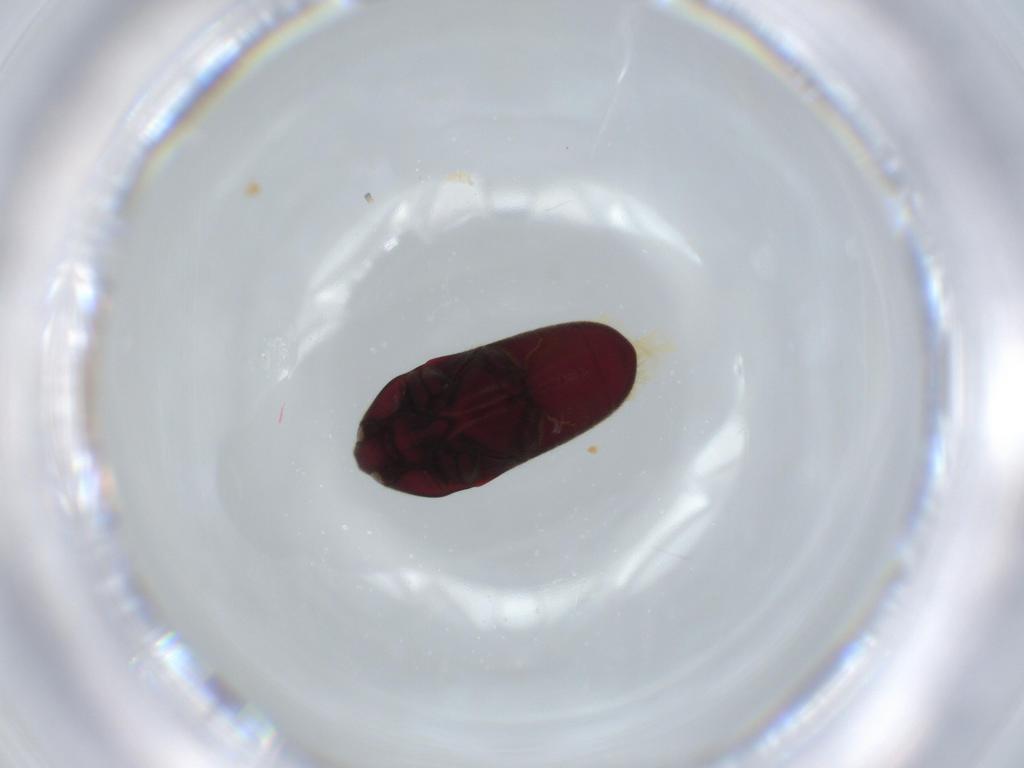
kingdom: Animalia
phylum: Arthropoda
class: Insecta
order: Coleoptera
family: Throscidae
